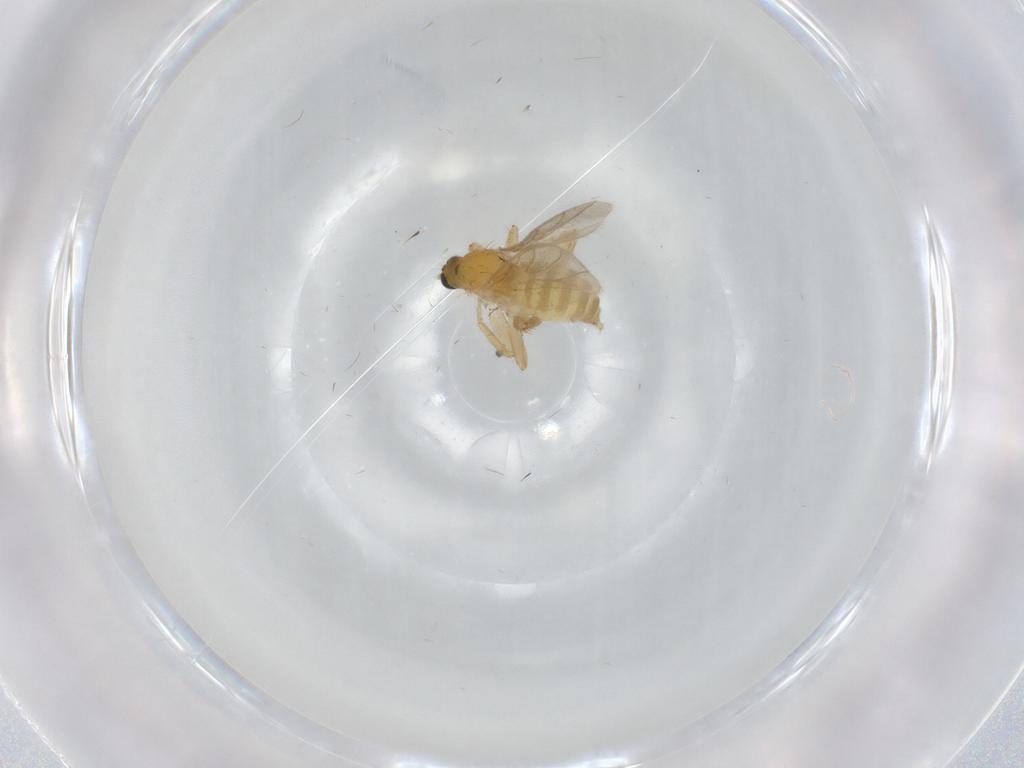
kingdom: Animalia
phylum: Arthropoda
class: Insecta
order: Diptera
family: Hybotidae
